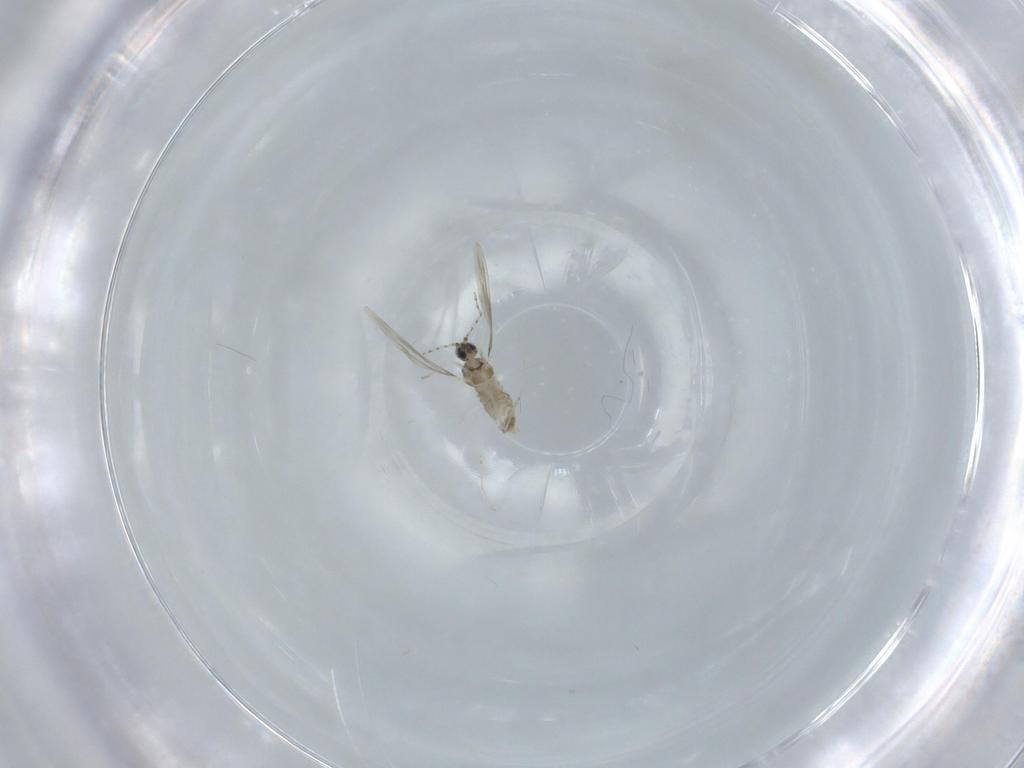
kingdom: Animalia
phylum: Arthropoda
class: Insecta
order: Diptera
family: Cecidomyiidae
